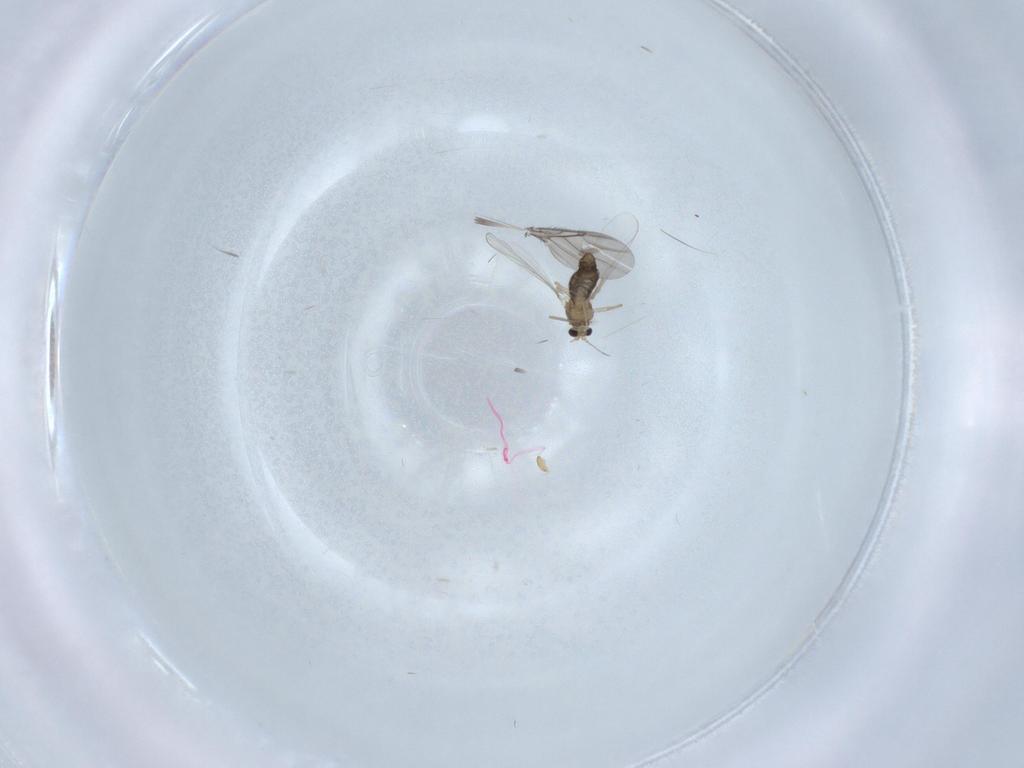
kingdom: Animalia
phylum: Arthropoda
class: Insecta
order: Diptera
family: Chironomidae
